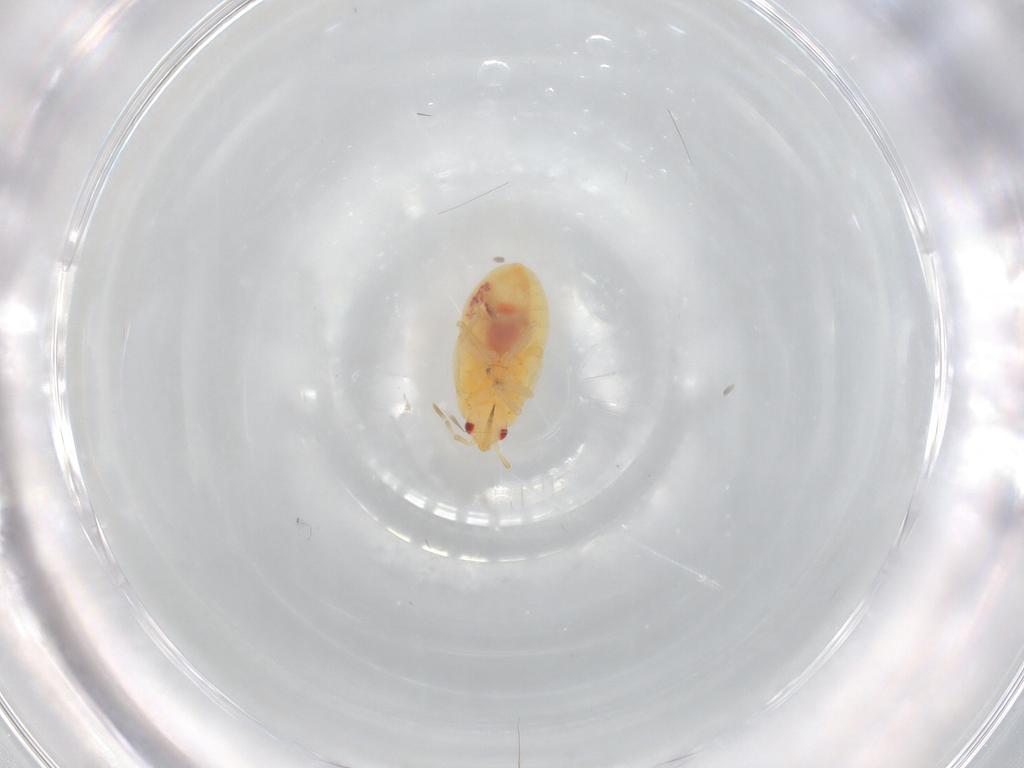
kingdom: Animalia
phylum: Arthropoda
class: Insecta
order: Hemiptera
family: Anthocoridae
